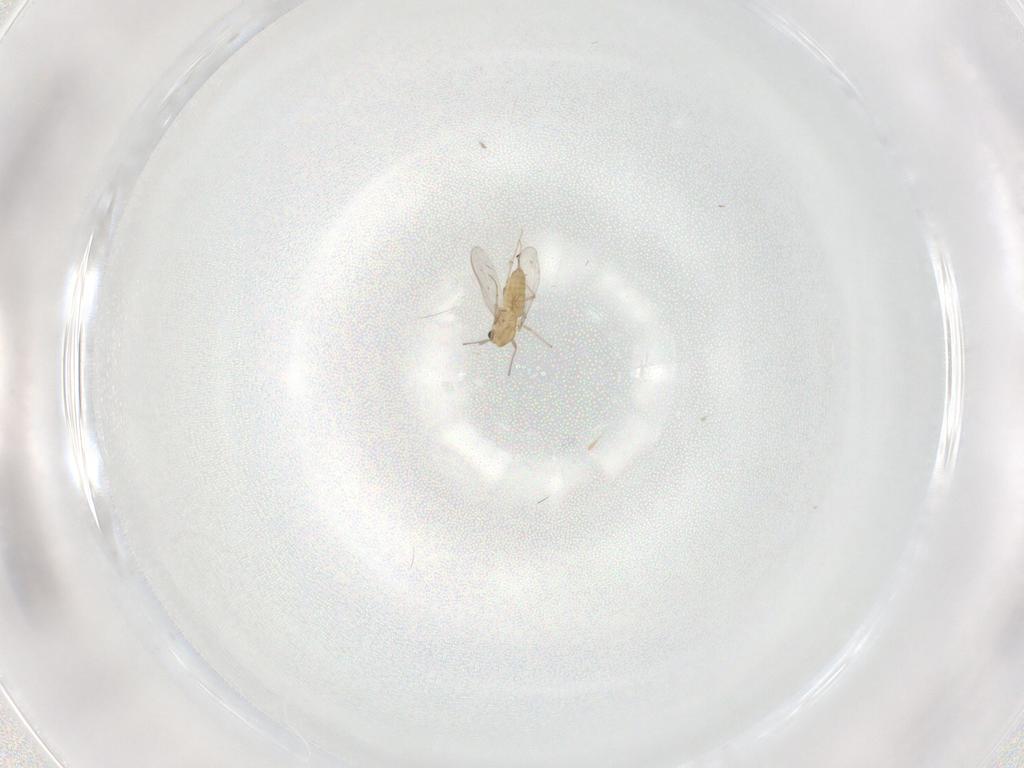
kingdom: Animalia
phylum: Arthropoda
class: Insecta
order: Diptera
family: Chironomidae
